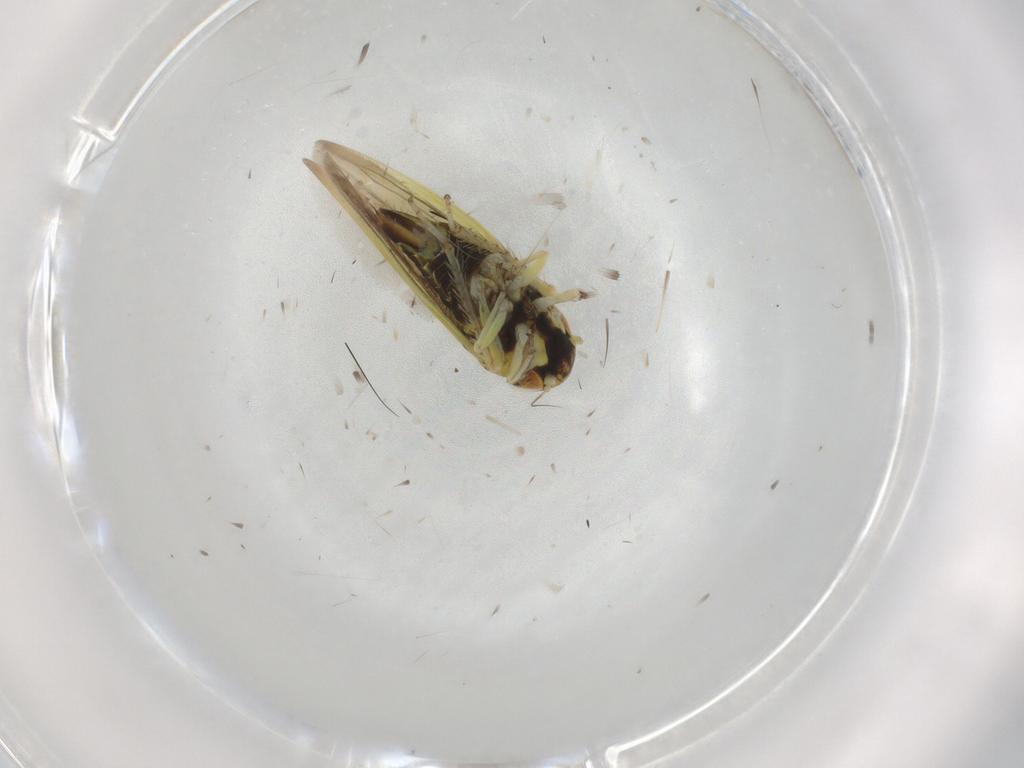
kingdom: Animalia
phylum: Arthropoda
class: Insecta
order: Hemiptera
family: Cicadellidae
